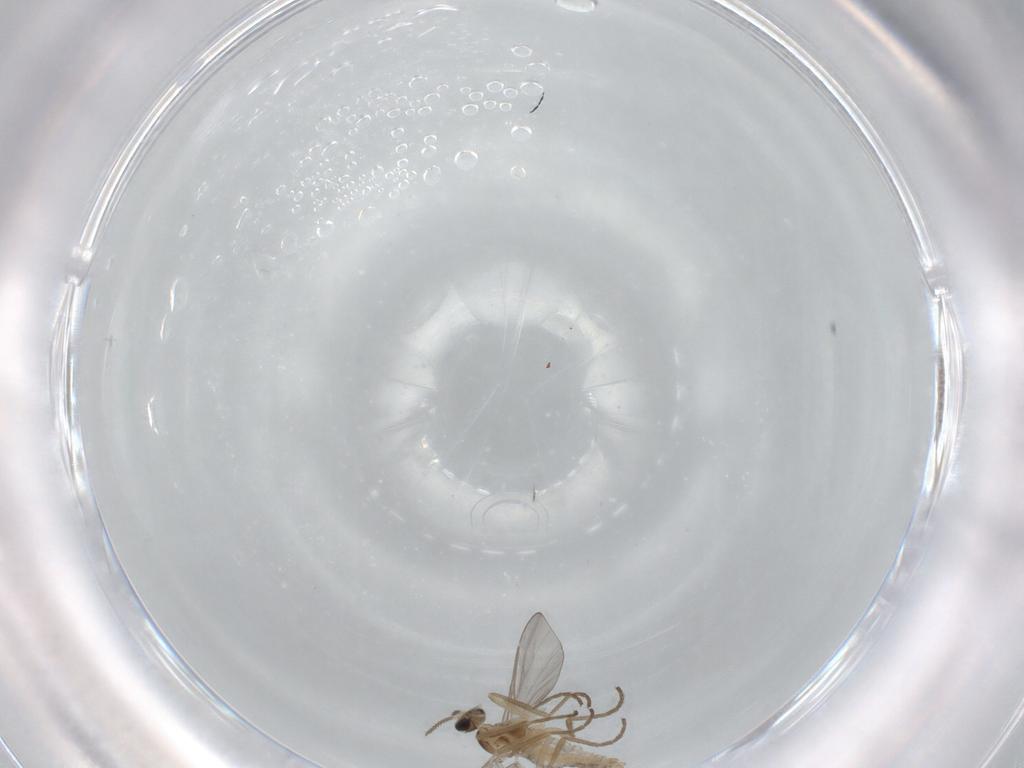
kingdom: Animalia
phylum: Arthropoda
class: Insecta
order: Diptera
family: Cecidomyiidae
